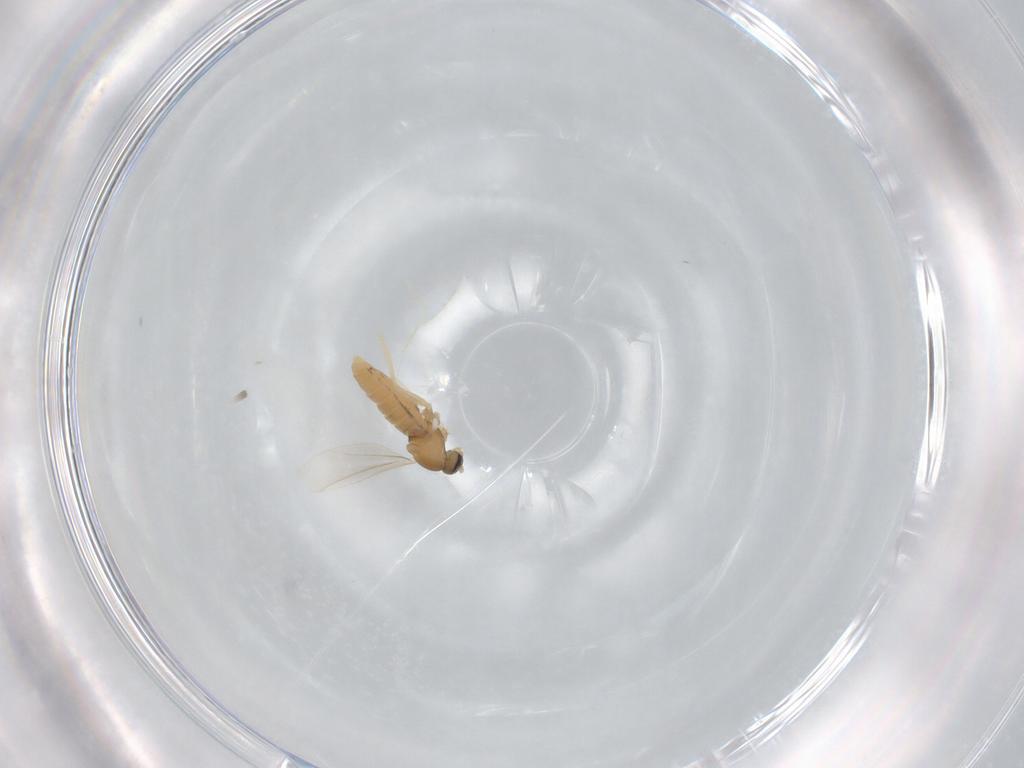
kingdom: Animalia
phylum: Arthropoda
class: Insecta
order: Diptera
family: Cecidomyiidae
